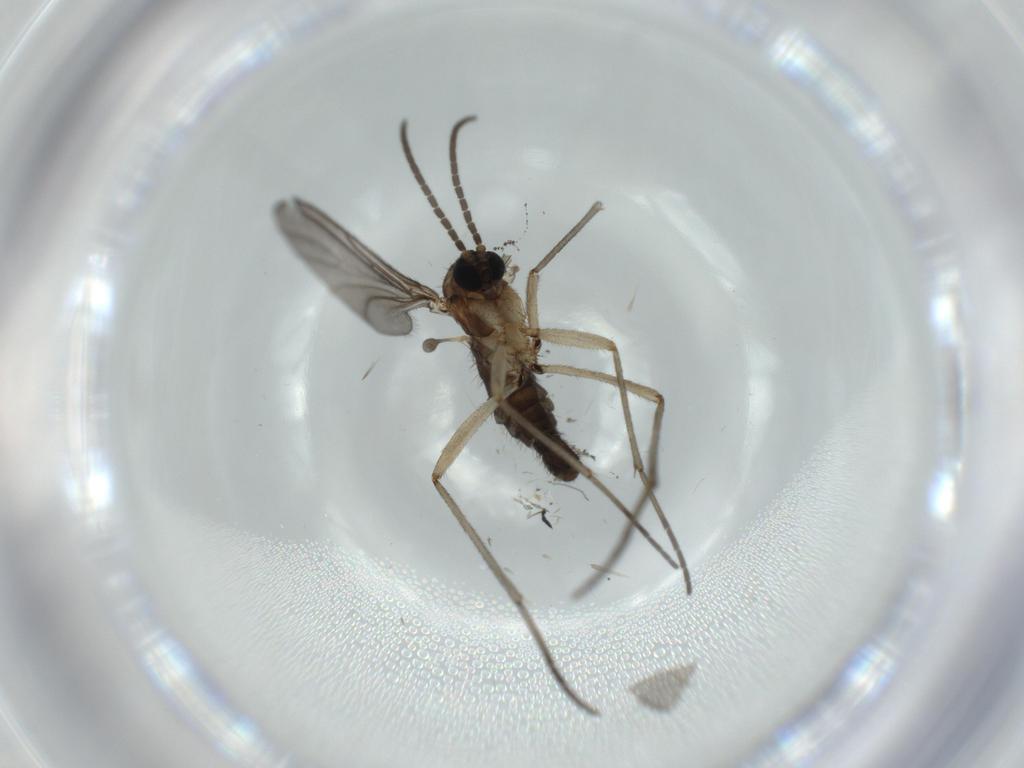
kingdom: Animalia
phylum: Arthropoda
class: Insecta
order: Diptera
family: Sciaridae
